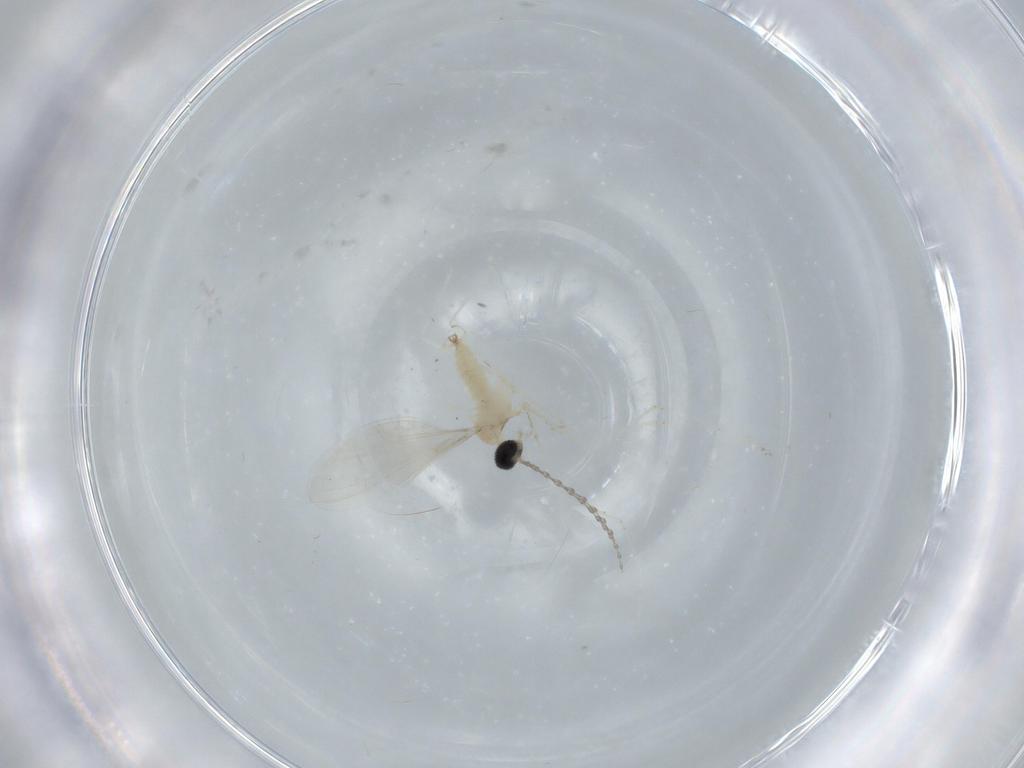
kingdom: Animalia
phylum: Arthropoda
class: Insecta
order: Diptera
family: Cecidomyiidae
